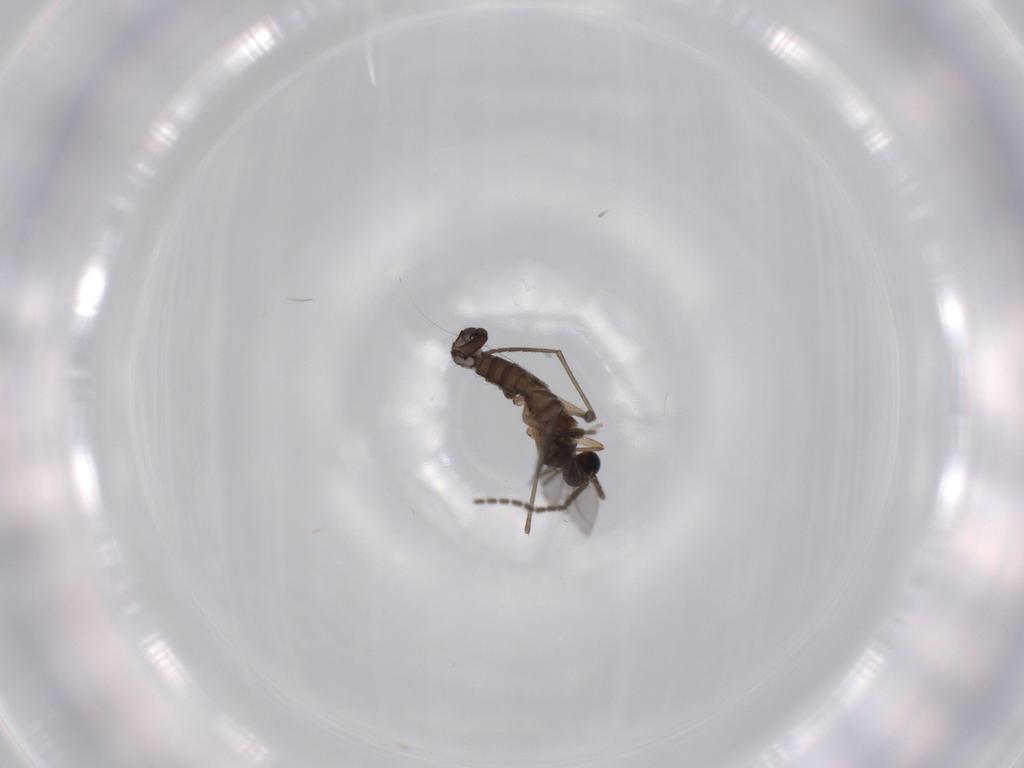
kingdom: Animalia
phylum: Arthropoda
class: Insecta
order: Diptera
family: Sciaridae
